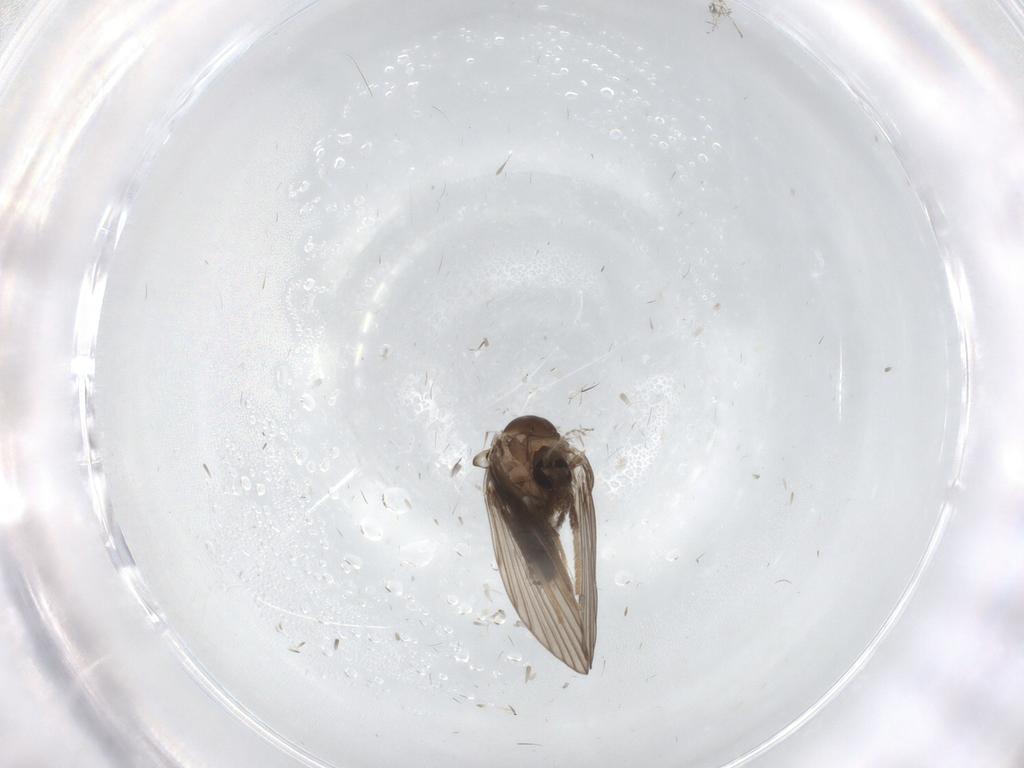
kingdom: Animalia
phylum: Arthropoda
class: Insecta
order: Diptera
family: Psychodidae
